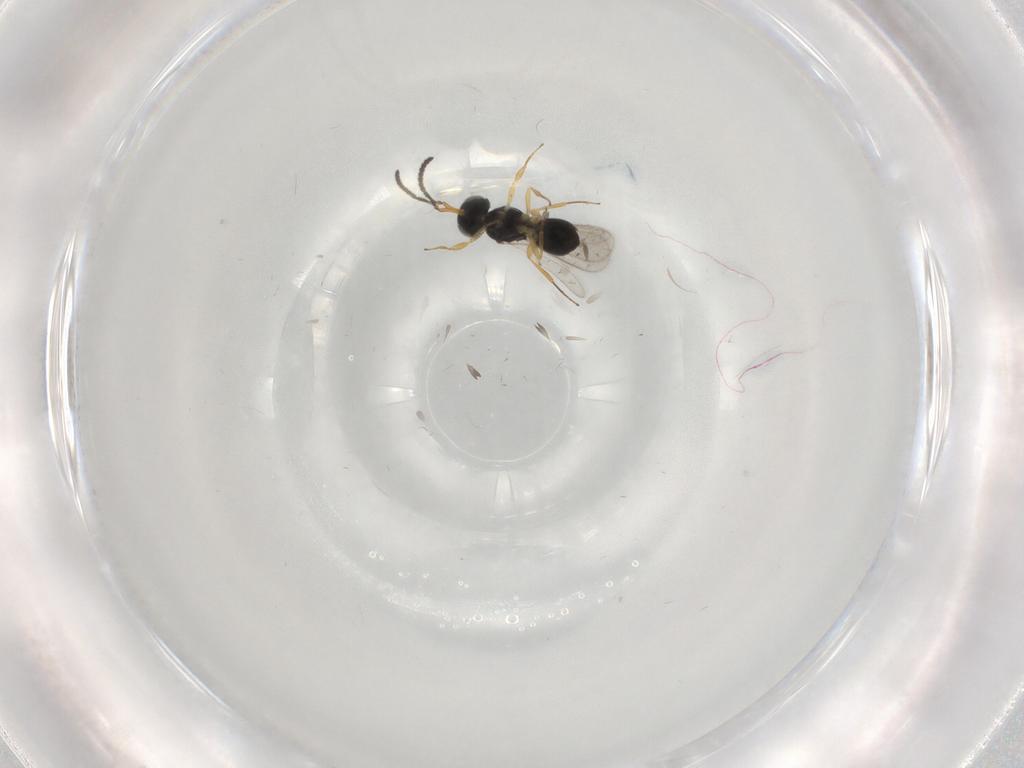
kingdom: Animalia
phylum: Arthropoda
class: Insecta
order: Hymenoptera
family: Scelionidae
